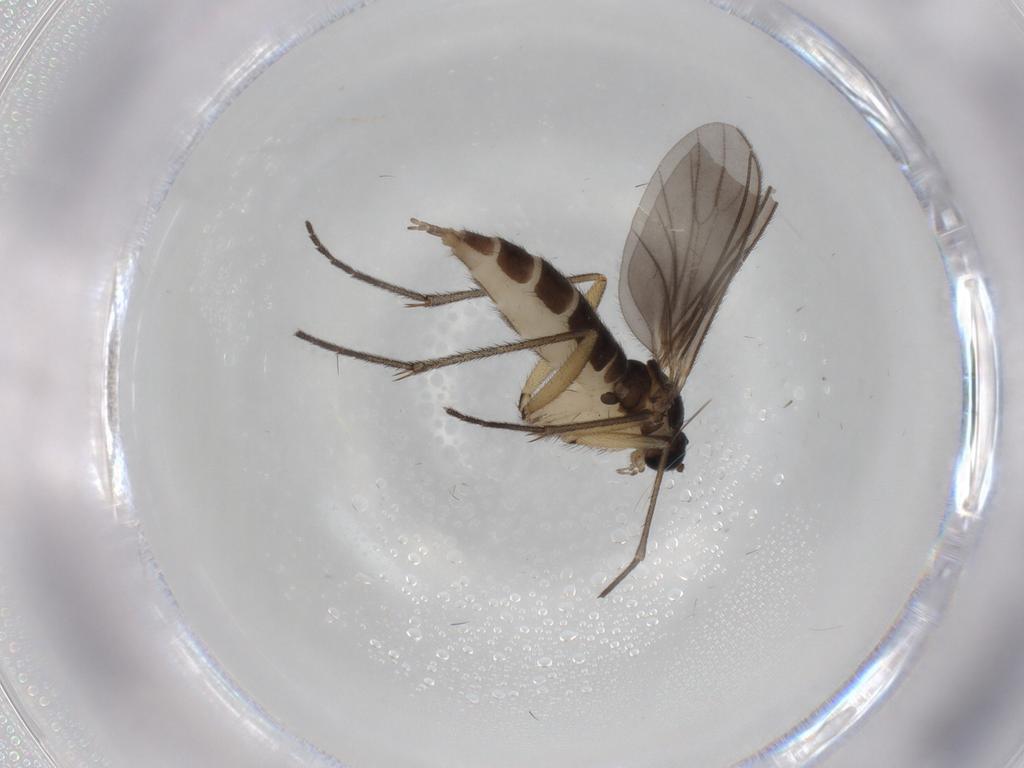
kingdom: Animalia
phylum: Arthropoda
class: Insecta
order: Diptera
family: Sciaridae
